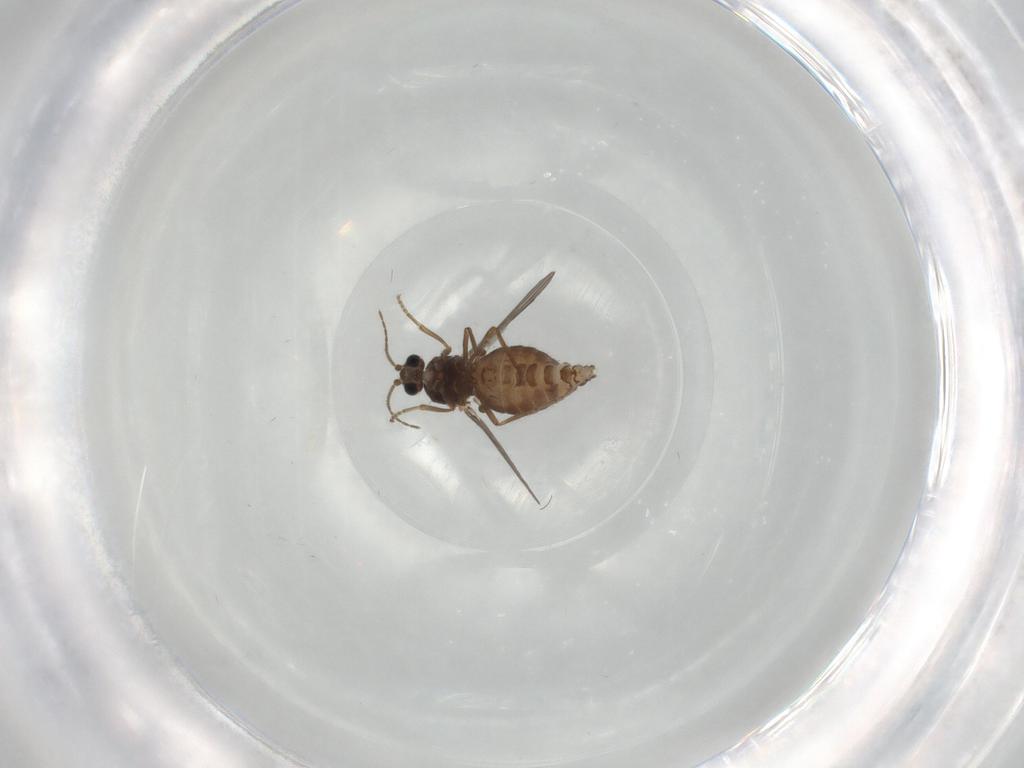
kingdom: Animalia
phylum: Arthropoda
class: Insecta
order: Diptera
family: Ceratopogonidae
